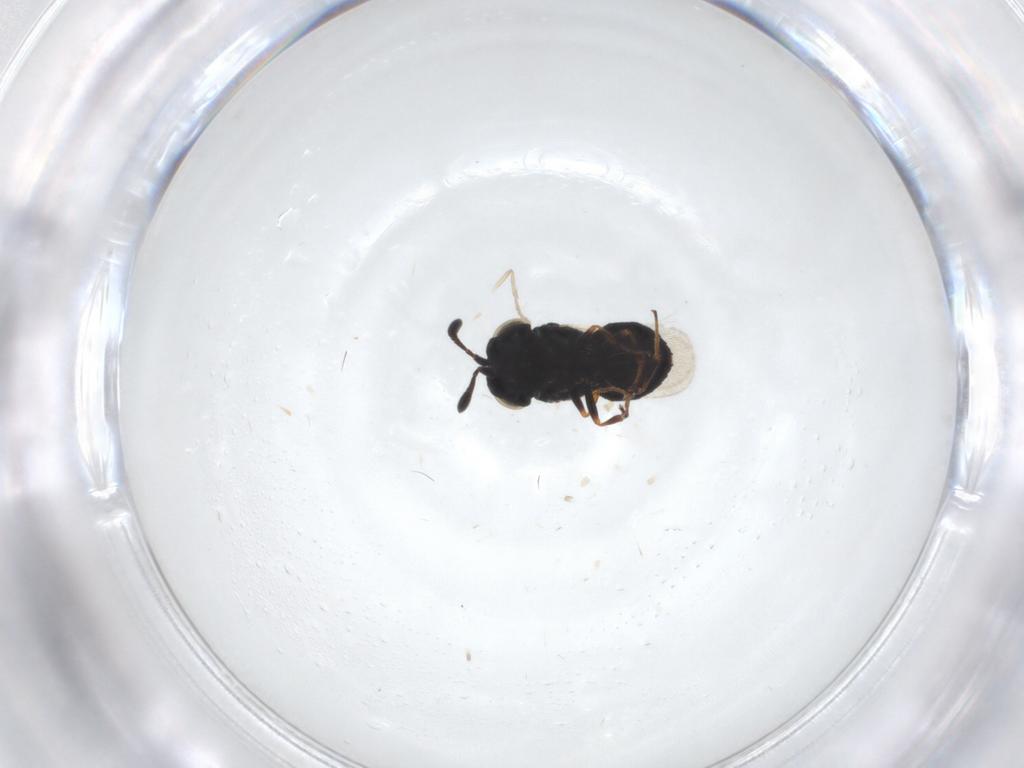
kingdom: Animalia
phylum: Arthropoda
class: Insecta
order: Hymenoptera
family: Scelionidae
